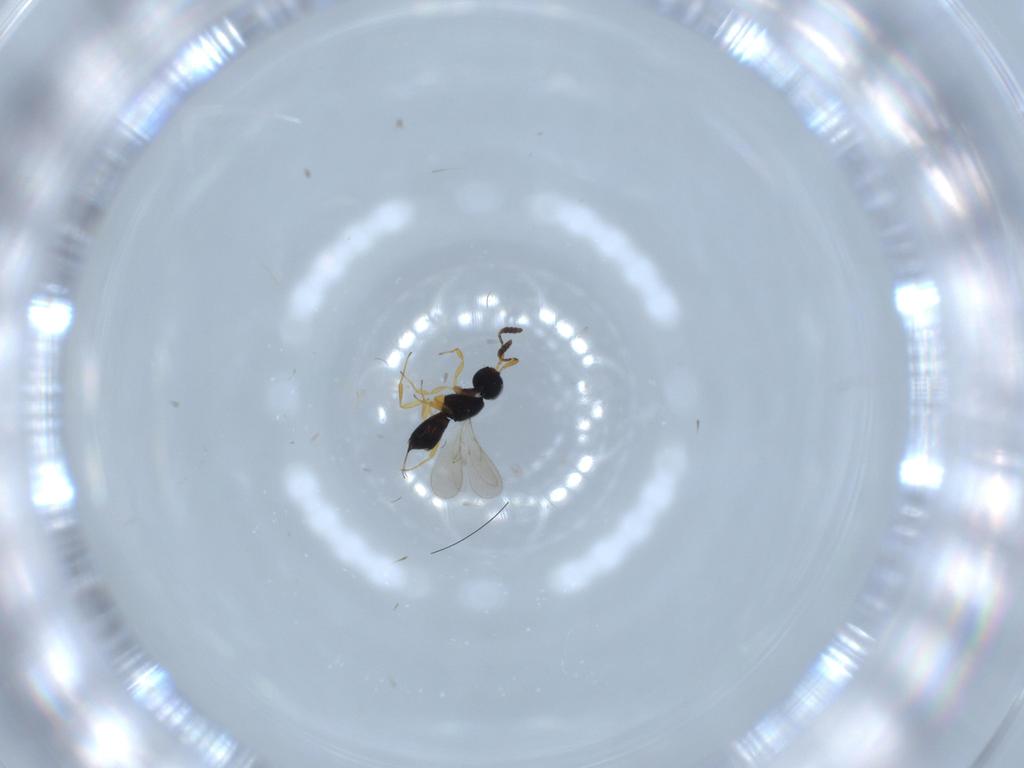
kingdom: Animalia
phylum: Arthropoda
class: Insecta
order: Hymenoptera
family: Scelionidae
